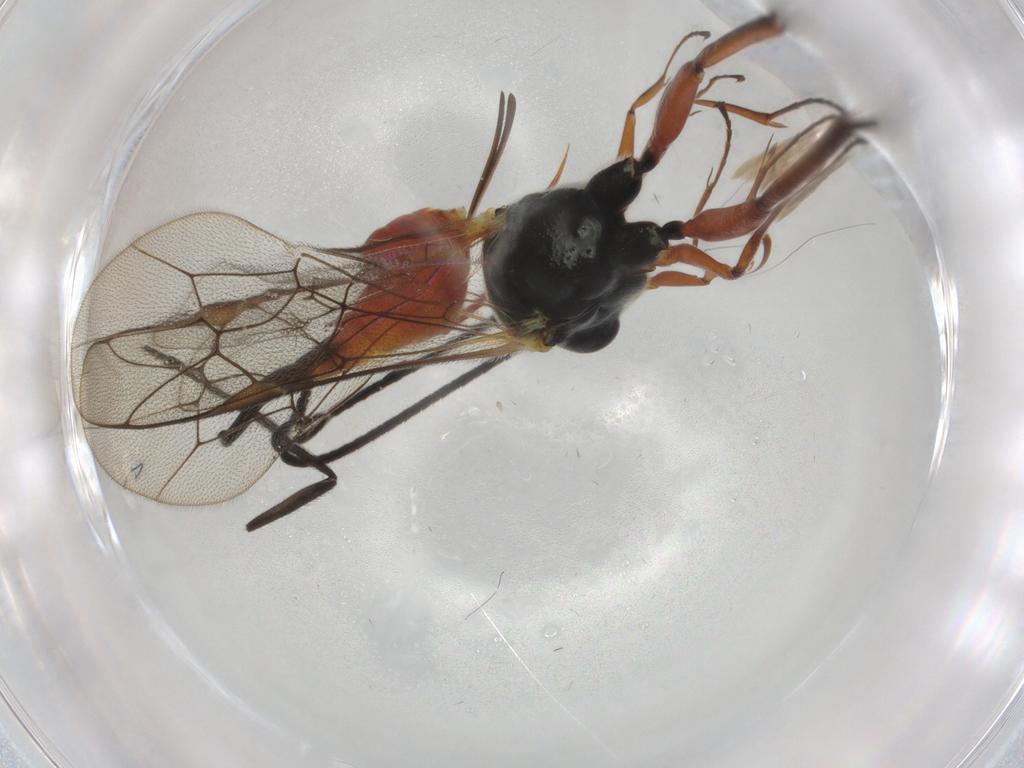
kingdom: Animalia
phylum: Arthropoda
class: Insecta
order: Hymenoptera
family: Ichneumonidae
